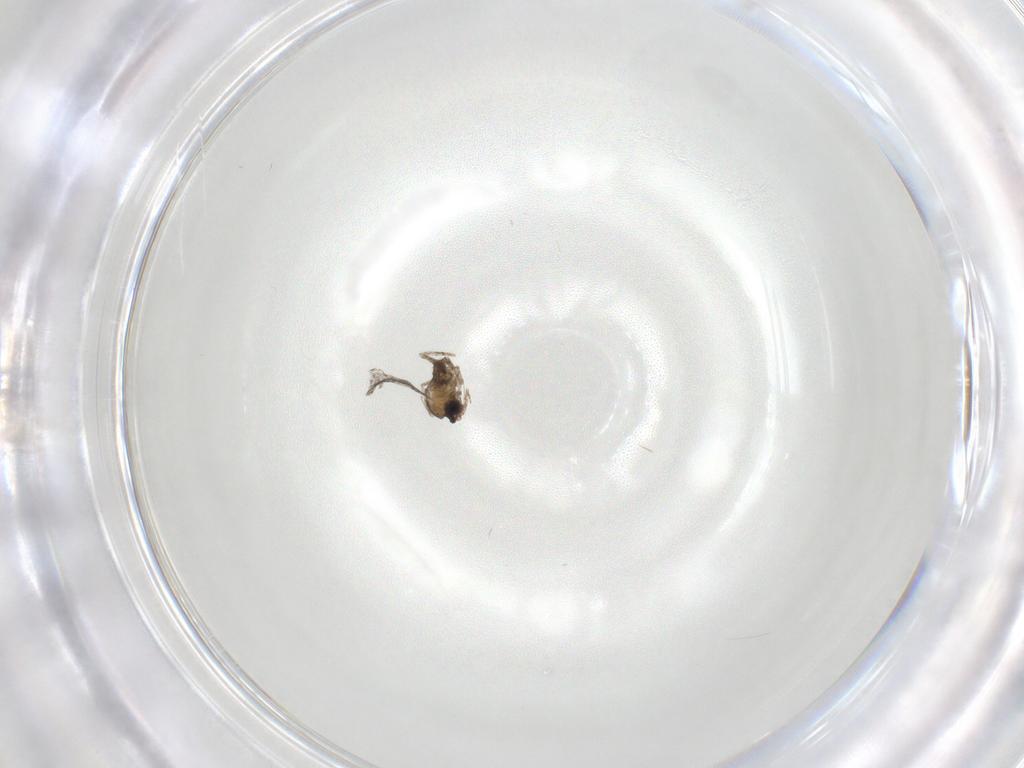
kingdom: Animalia
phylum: Arthropoda
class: Insecta
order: Diptera
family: Cecidomyiidae
